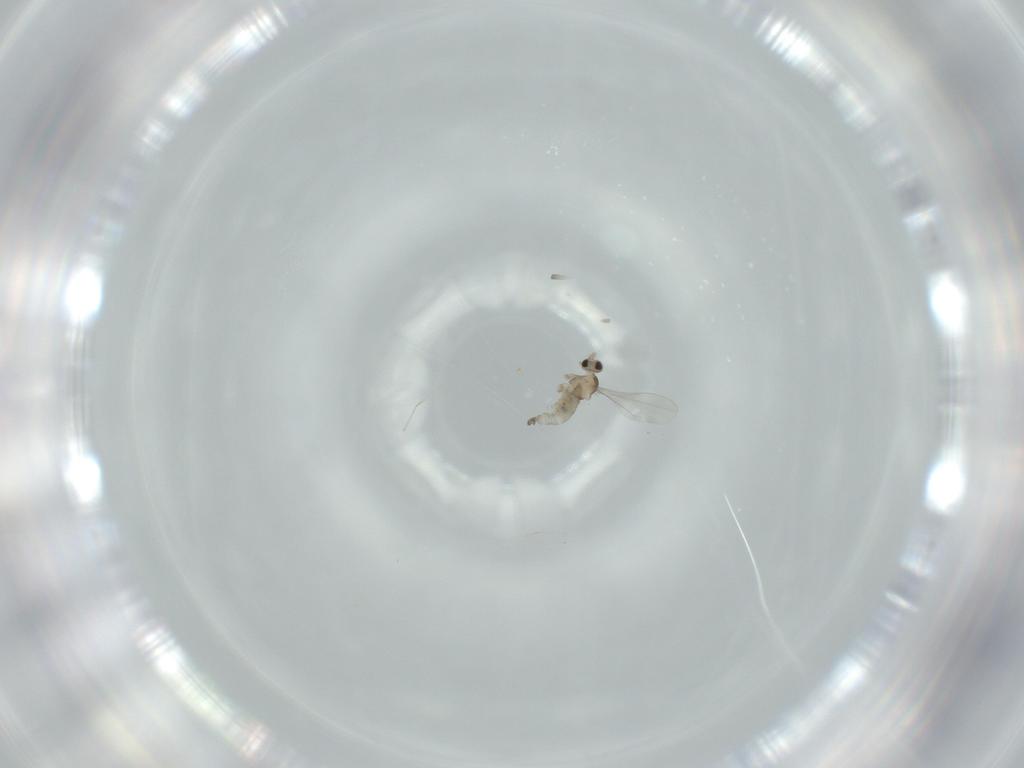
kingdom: Animalia
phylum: Arthropoda
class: Insecta
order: Diptera
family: Cecidomyiidae
